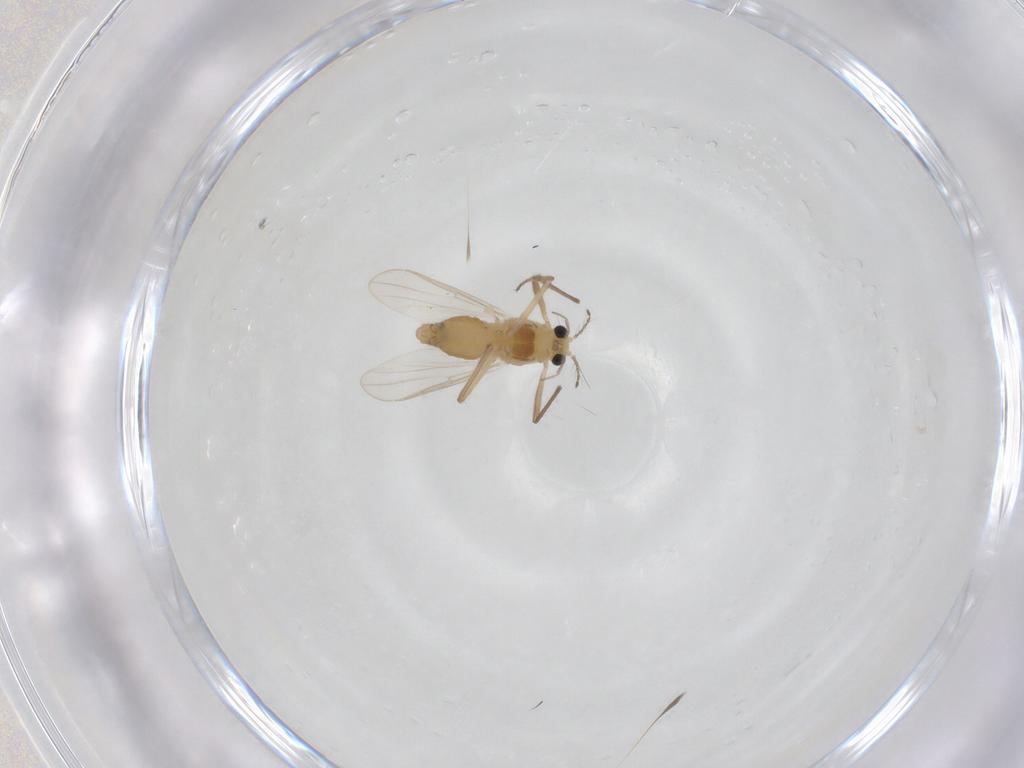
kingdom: Animalia
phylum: Arthropoda
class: Insecta
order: Diptera
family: Chironomidae
